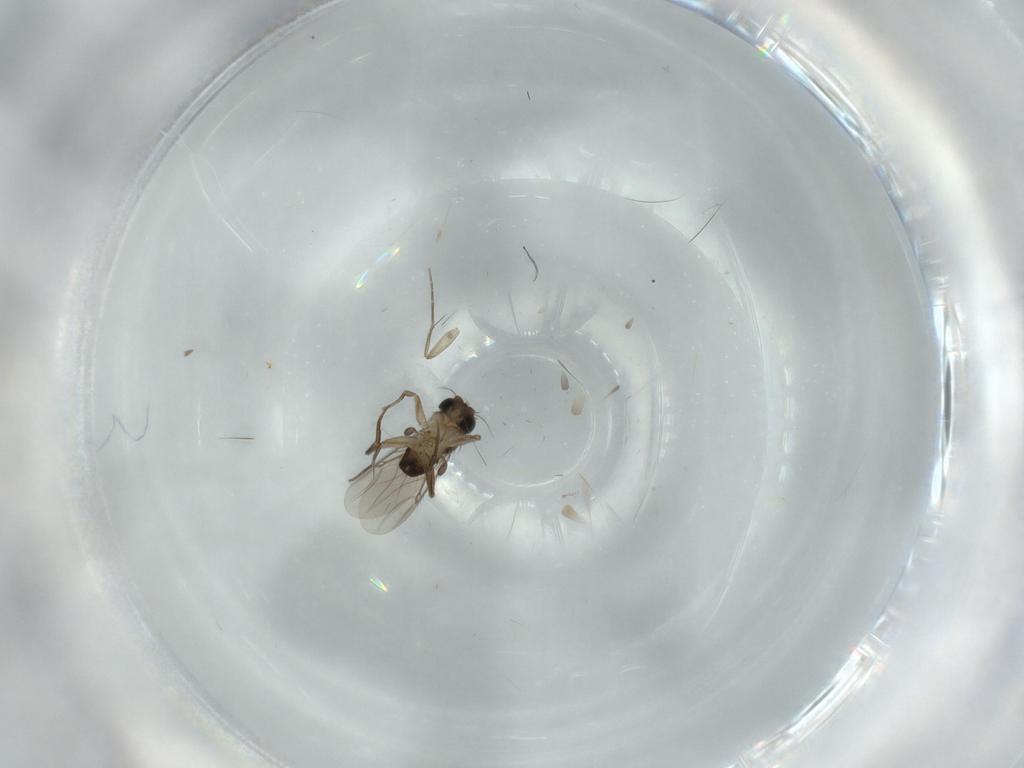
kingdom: Animalia
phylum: Arthropoda
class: Insecta
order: Diptera
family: Phoridae
